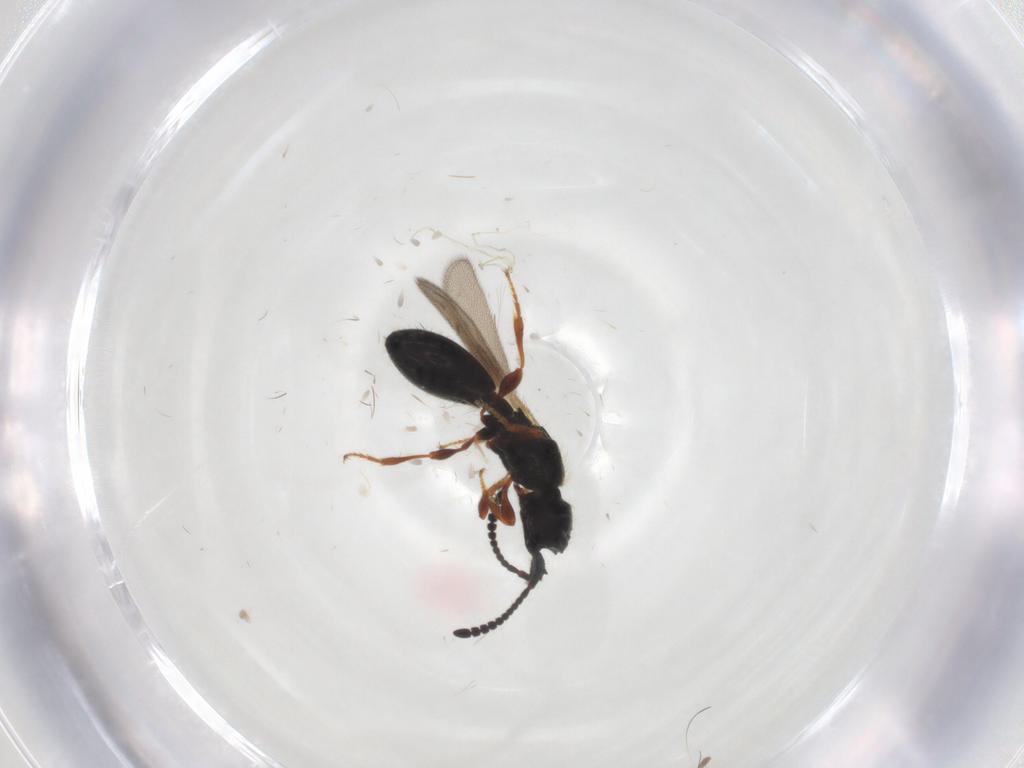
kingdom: Animalia
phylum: Arthropoda
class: Insecta
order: Hymenoptera
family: Diapriidae
